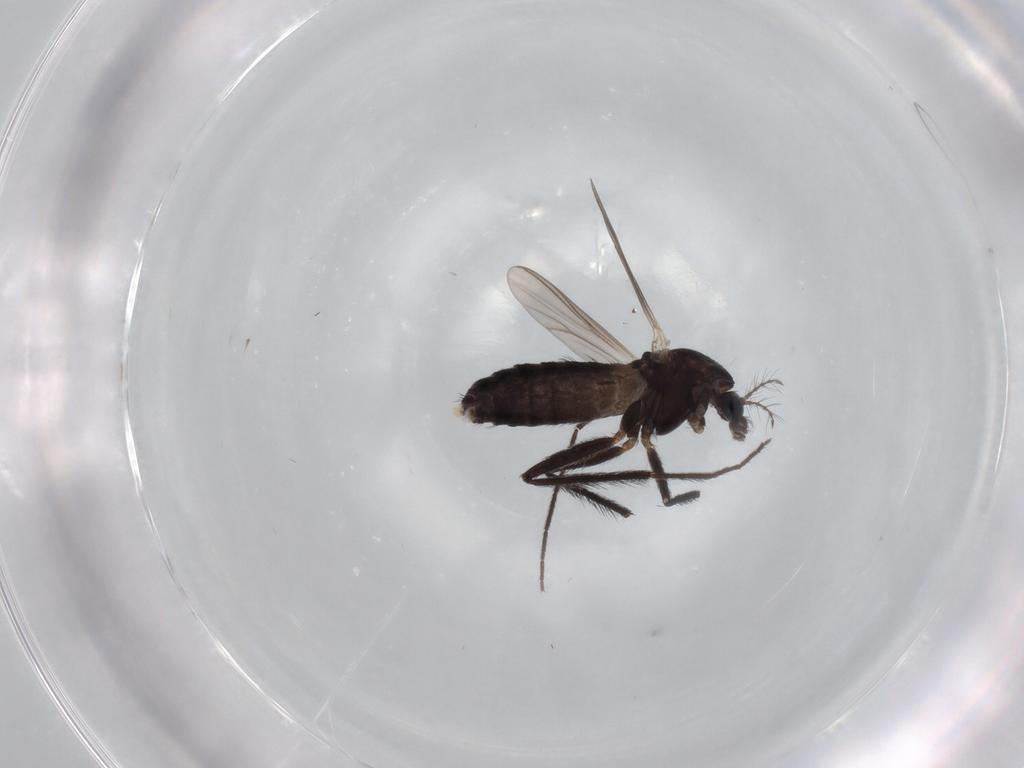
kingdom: Animalia
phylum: Arthropoda
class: Insecta
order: Diptera
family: Chironomidae
